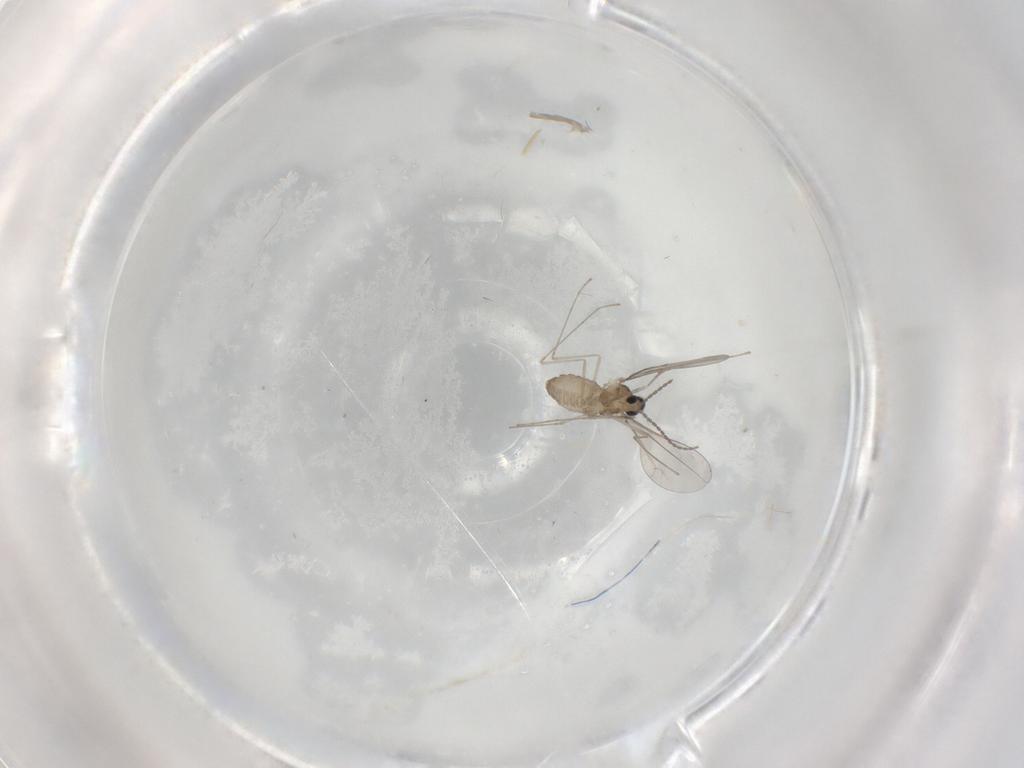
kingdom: Animalia
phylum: Arthropoda
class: Insecta
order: Diptera
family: Cecidomyiidae
